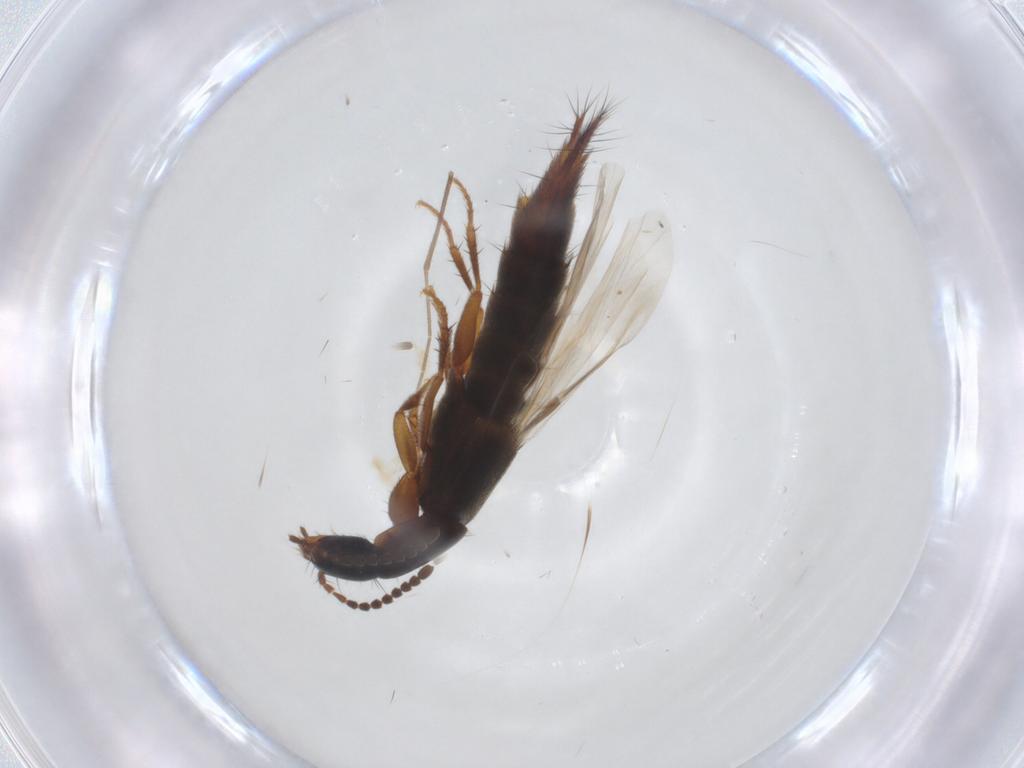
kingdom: Animalia
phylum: Arthropoda
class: Insecta
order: Coleoptera
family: Staphylinidae
